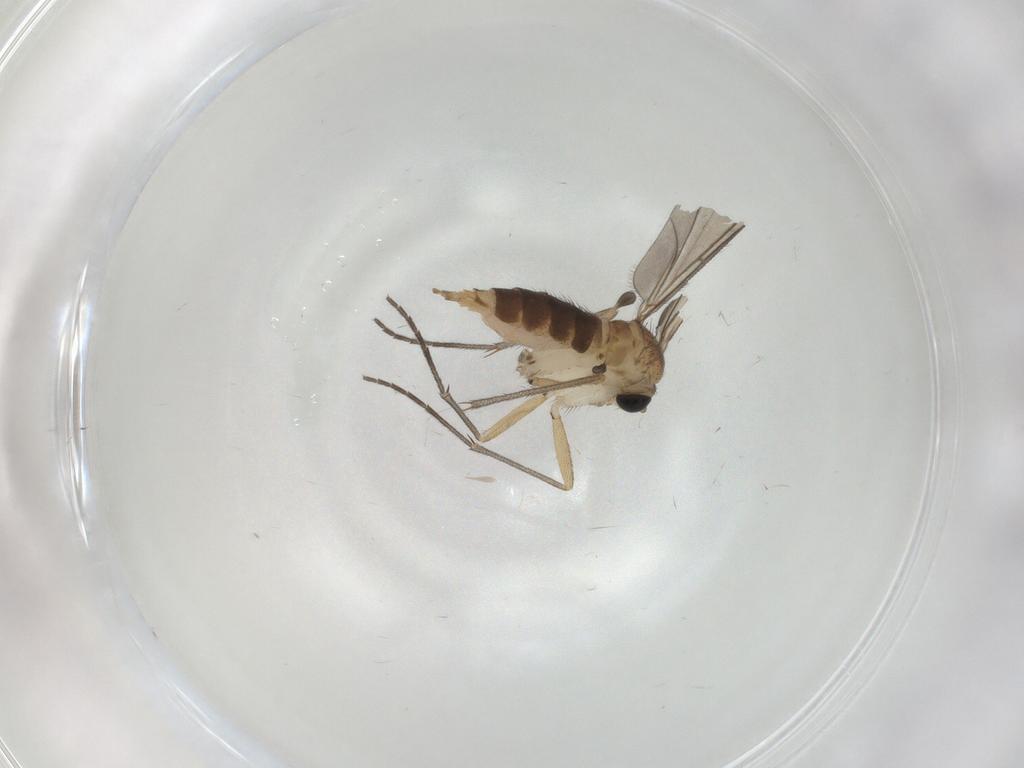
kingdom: Animalia
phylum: Arthropoda
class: Insecta
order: Diptera
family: Sciaridae
